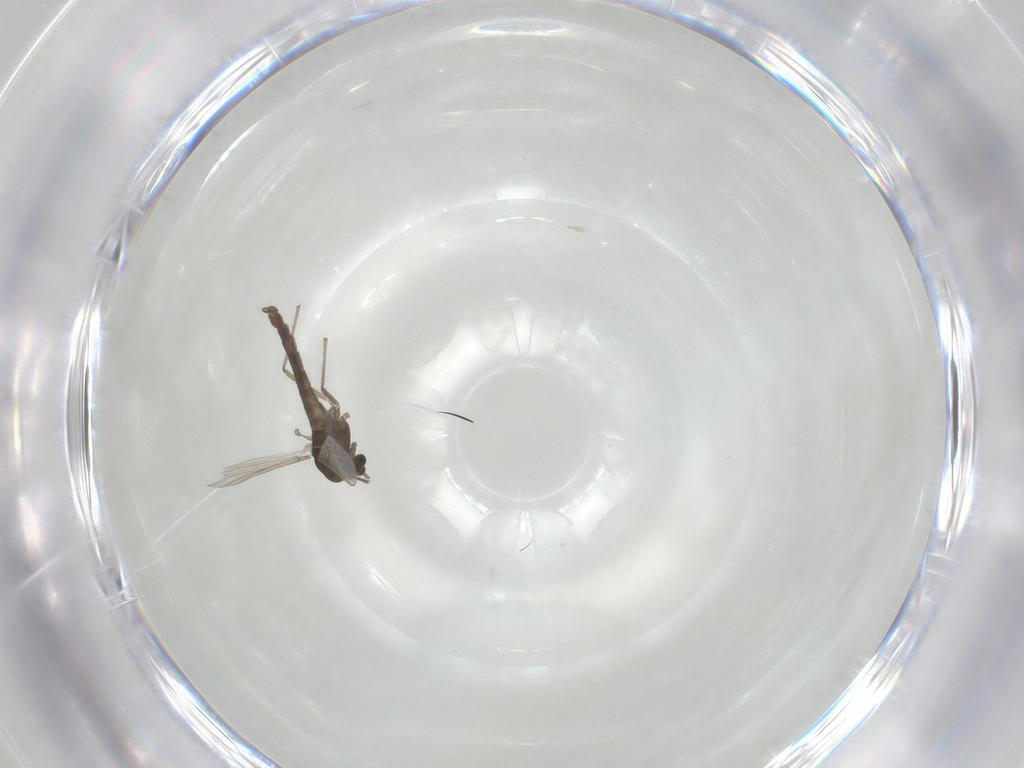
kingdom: Animalia
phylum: Arthropoda
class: Insecta
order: Diptera
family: Chironomidae
